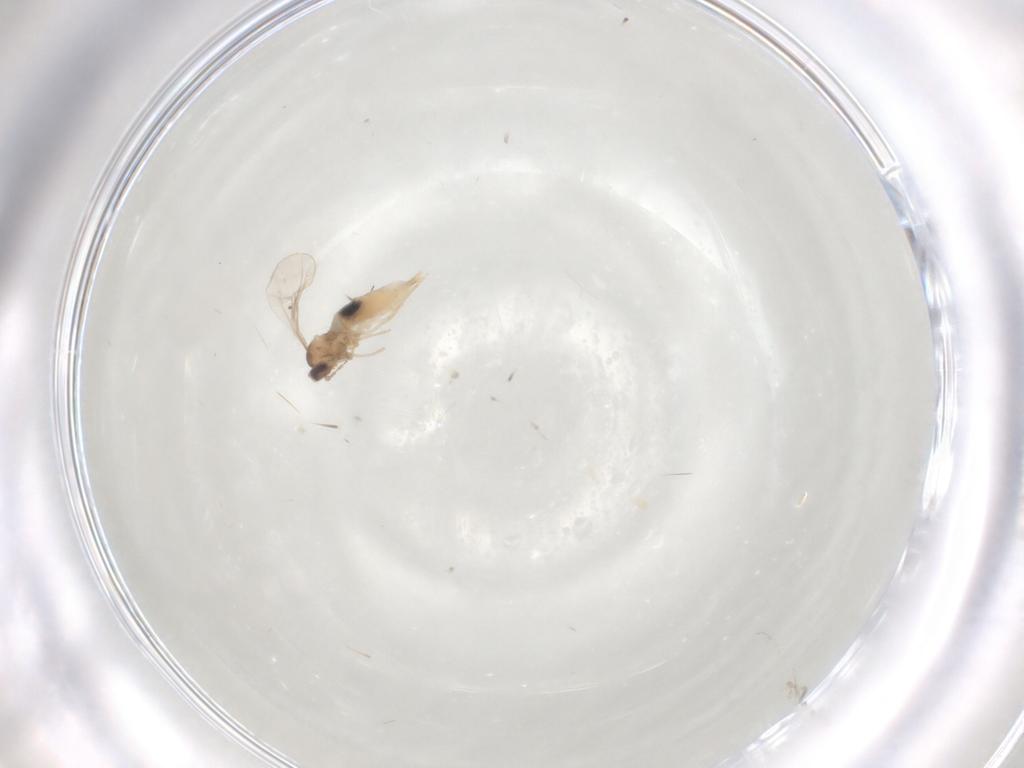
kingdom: Animalia
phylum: Arthropoda
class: Insecta
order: Diptera
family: Cecidomyiidae
